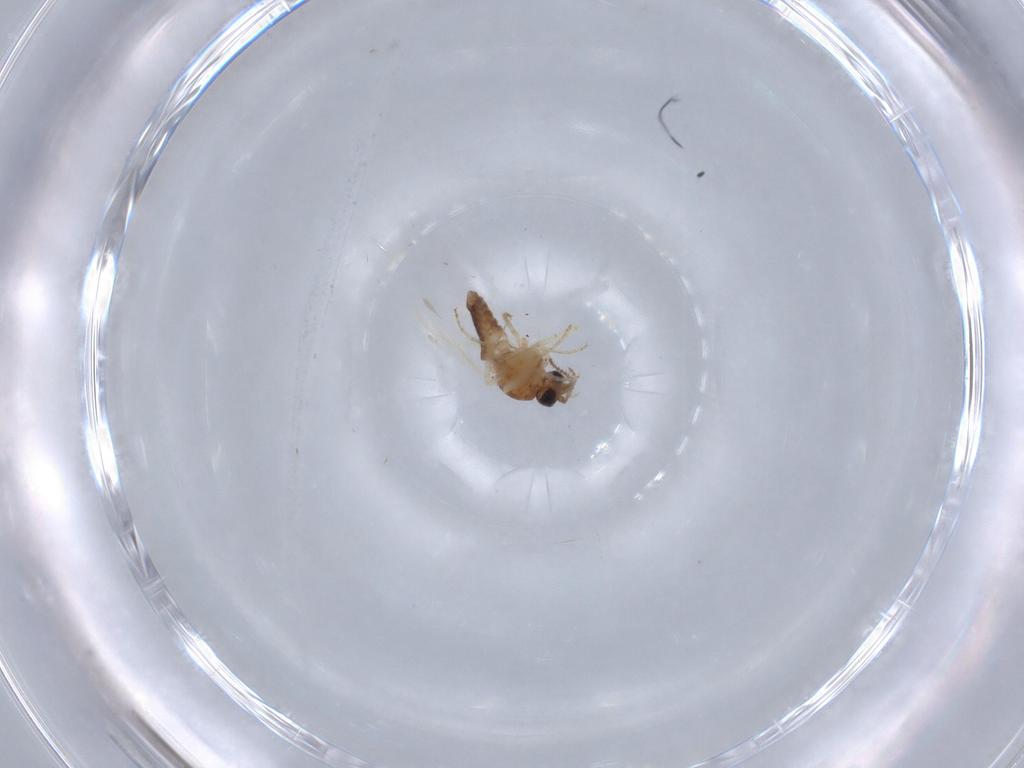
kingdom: Animalia
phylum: Arthropoda
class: Insecta
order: Diptera
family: Ceratopogonidae
